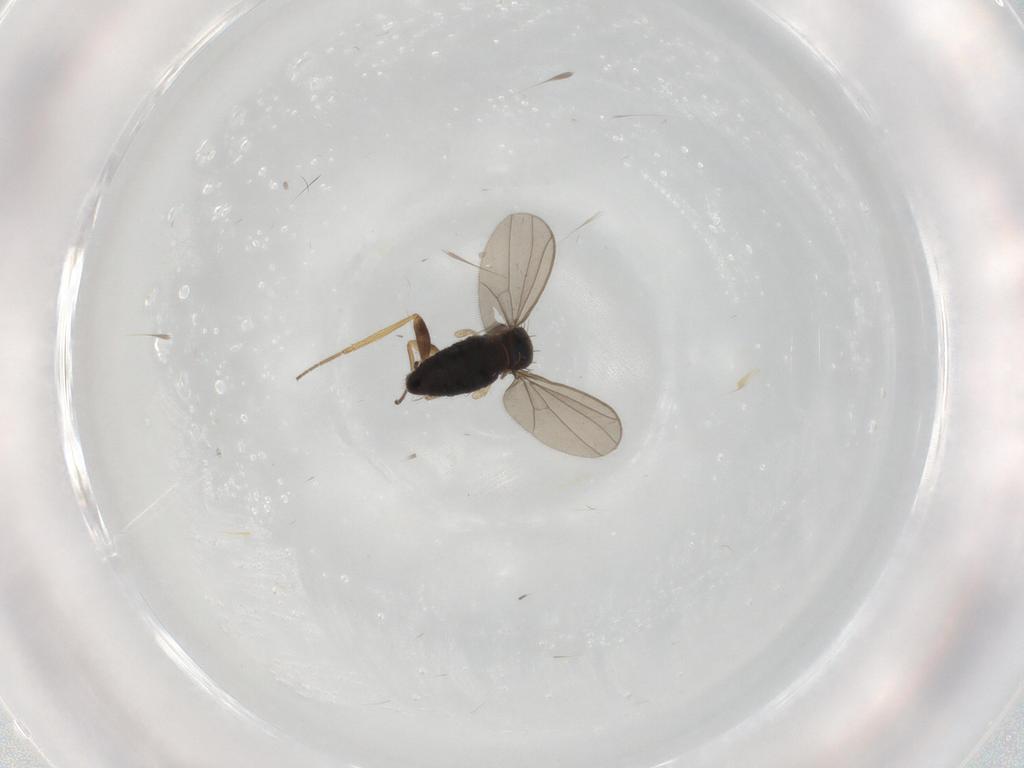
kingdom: Animalia
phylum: Arthropoda
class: Insecta
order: Diptera
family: Dolichopodidae
